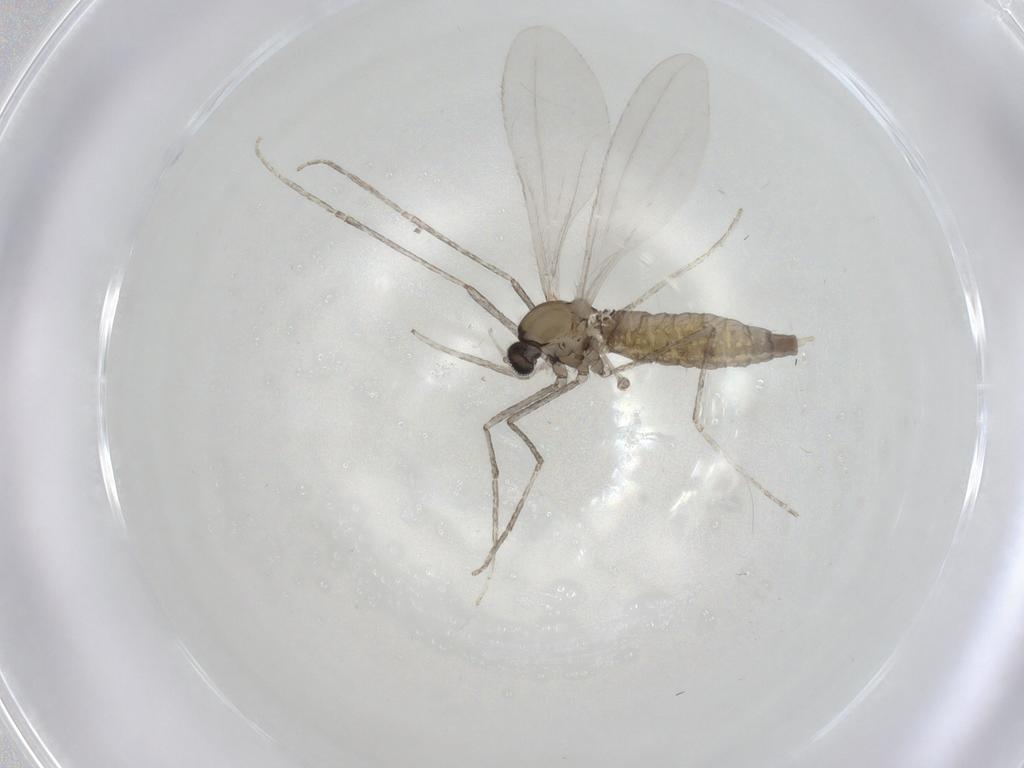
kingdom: Animalia
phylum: Arthropoda
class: Insecta
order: Diptera
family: Cecidomyiidae
